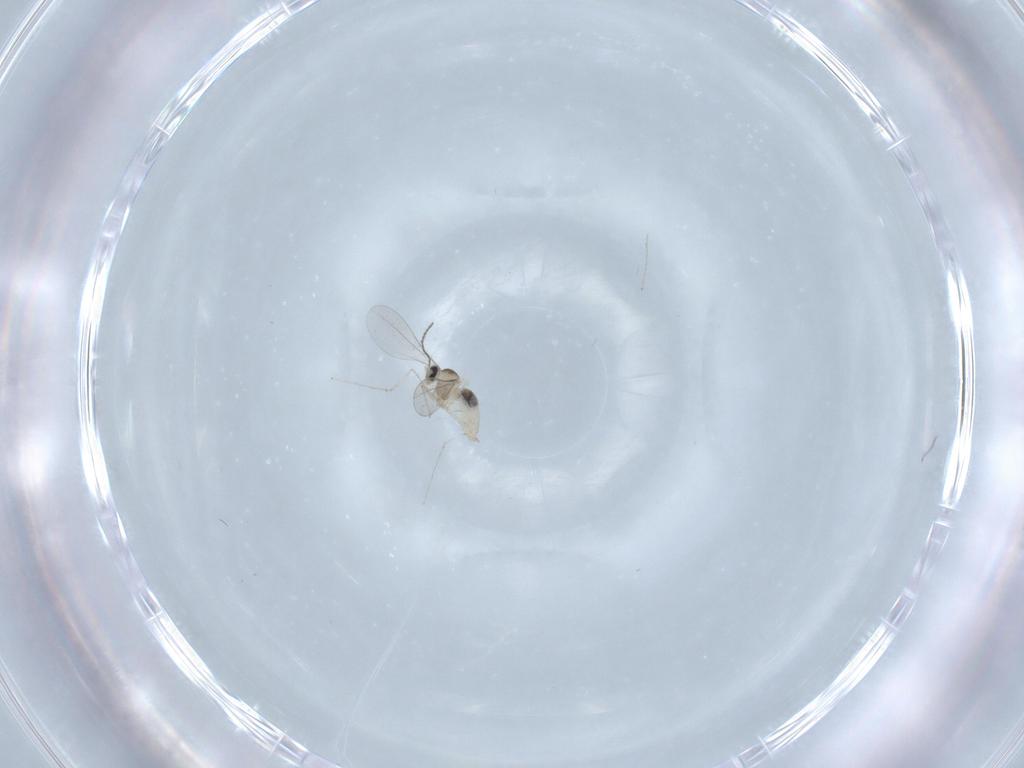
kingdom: Animalia
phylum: Arthropoda
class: Insecta
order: Diptera
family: Cecidomyiidae
